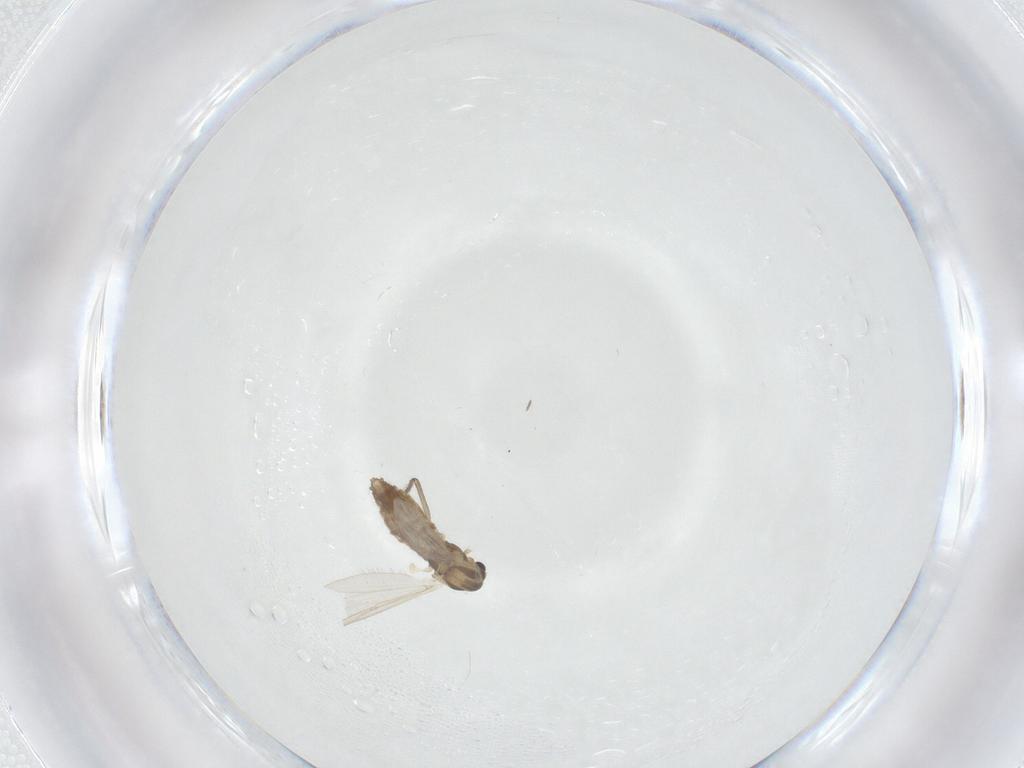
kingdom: Animalia
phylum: Arthropoda
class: Insecta
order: Diptera
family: Chironomidae
